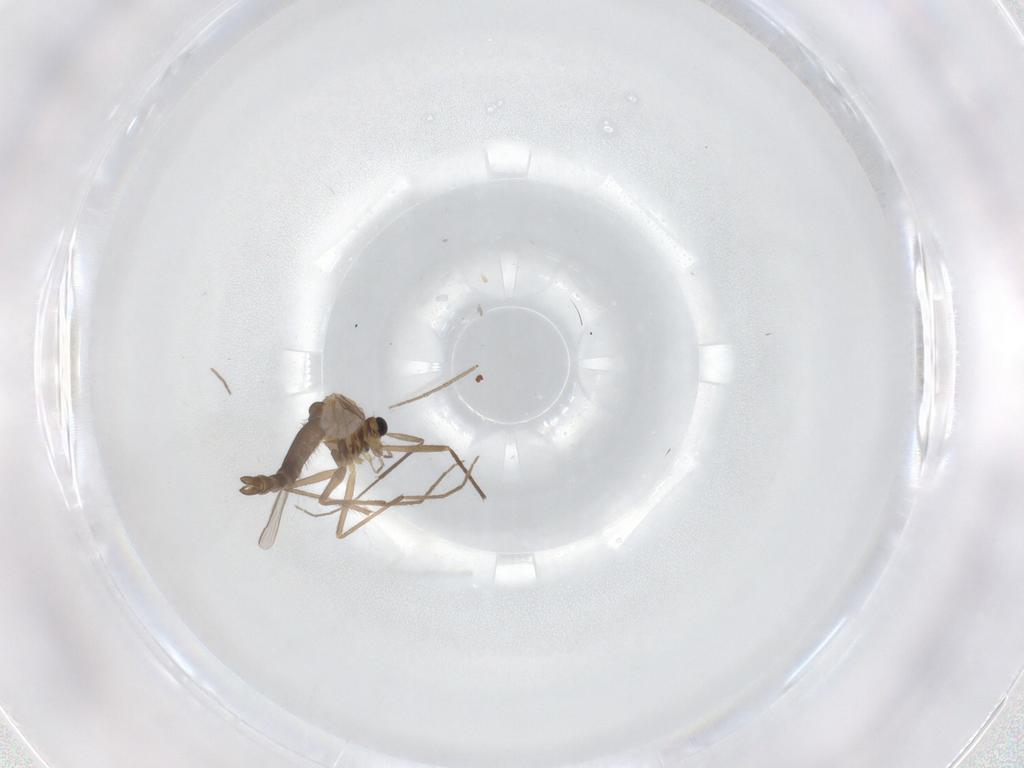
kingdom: Animalia
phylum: Arthropoda
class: Insecta
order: Diptera
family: Chironomidae
